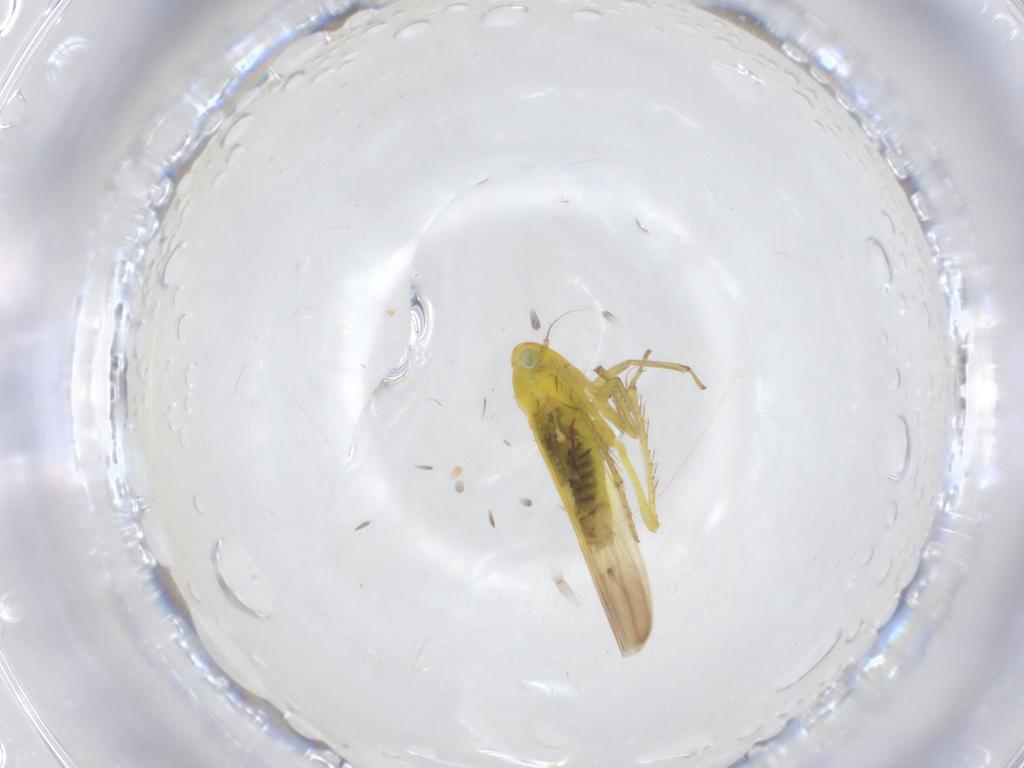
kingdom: Animalia
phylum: Arthropoda
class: Insecta
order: Hemiptera
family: Cicadellidae
